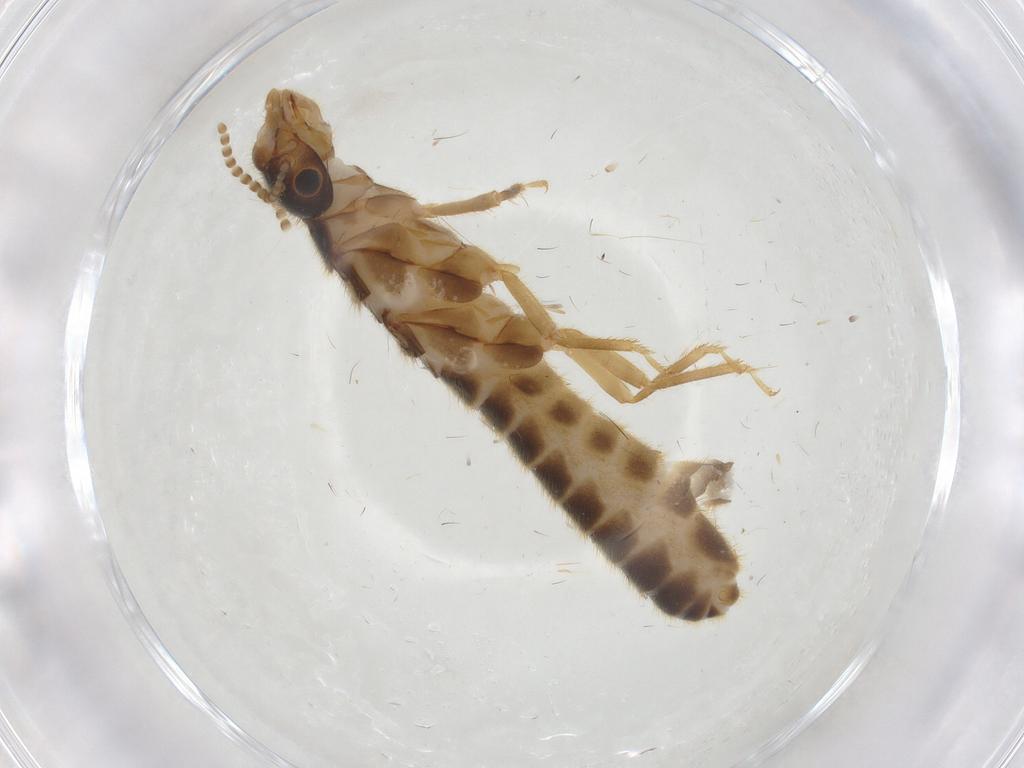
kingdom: Animalia
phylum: Arthropoda
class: Insecta
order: Blattodea
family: Ectobiidae
